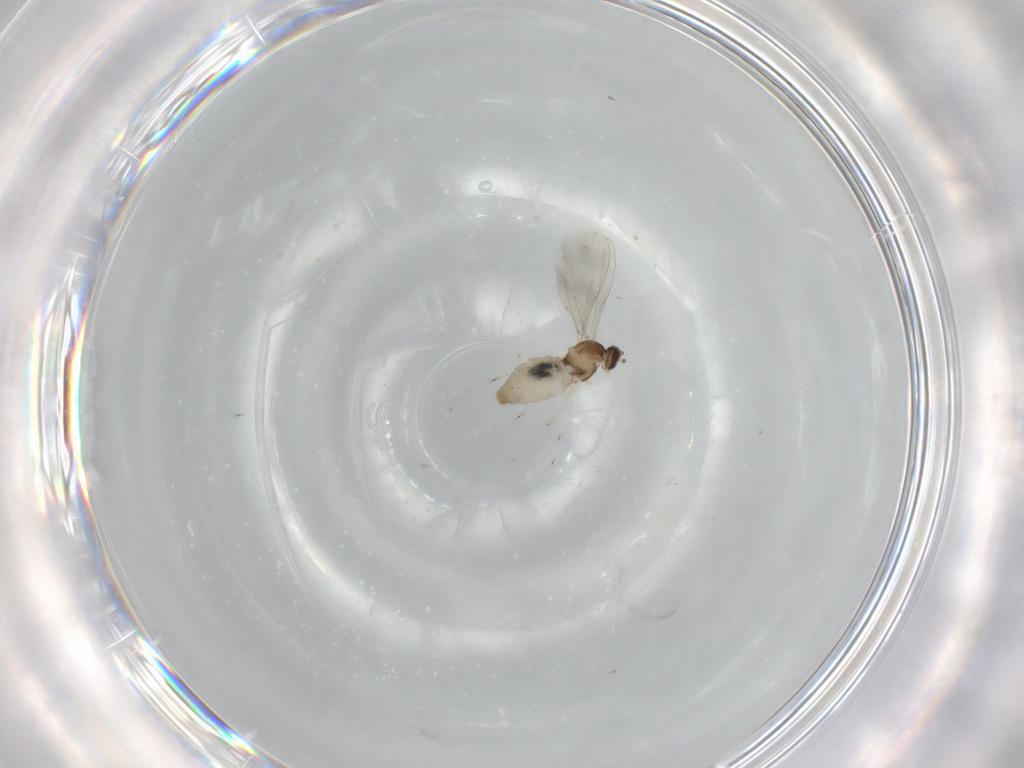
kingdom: Animalia
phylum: Arthropoda
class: Insecta
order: Diptera
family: Cecidomyiidae
